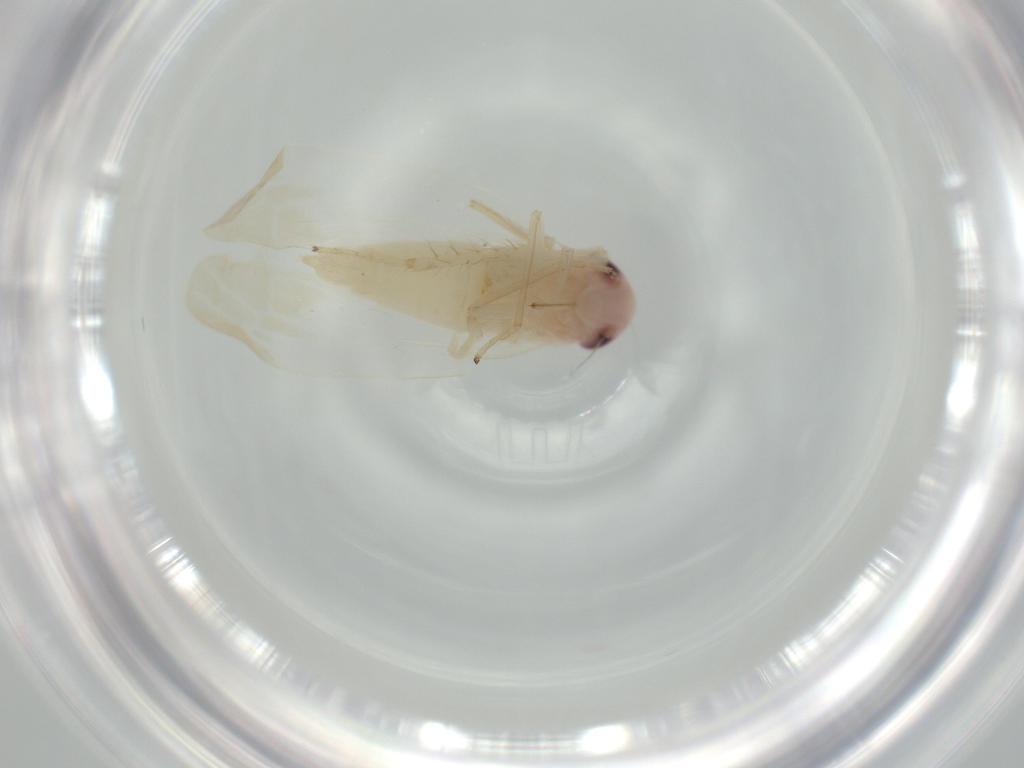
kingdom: Animalia
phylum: Arthropoda
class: Insecta
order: Hemiptera
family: Cicadellidae
